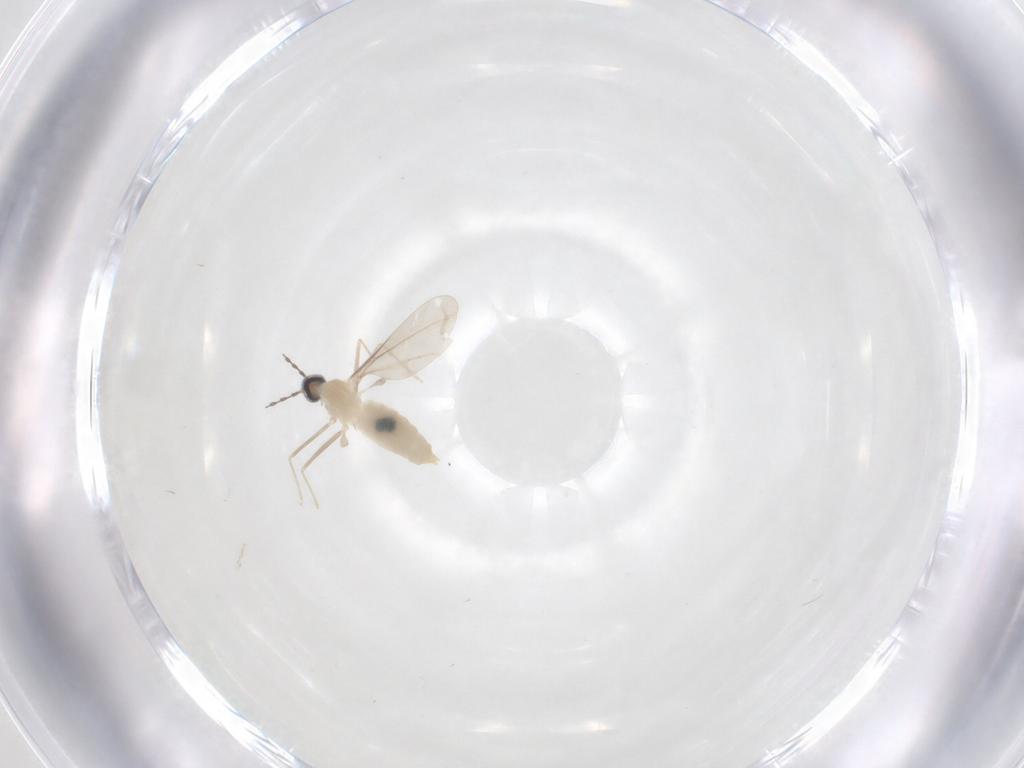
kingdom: Animalia
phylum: Arthropoda
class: Insecta
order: Diptera
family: Cecidomyiidae
